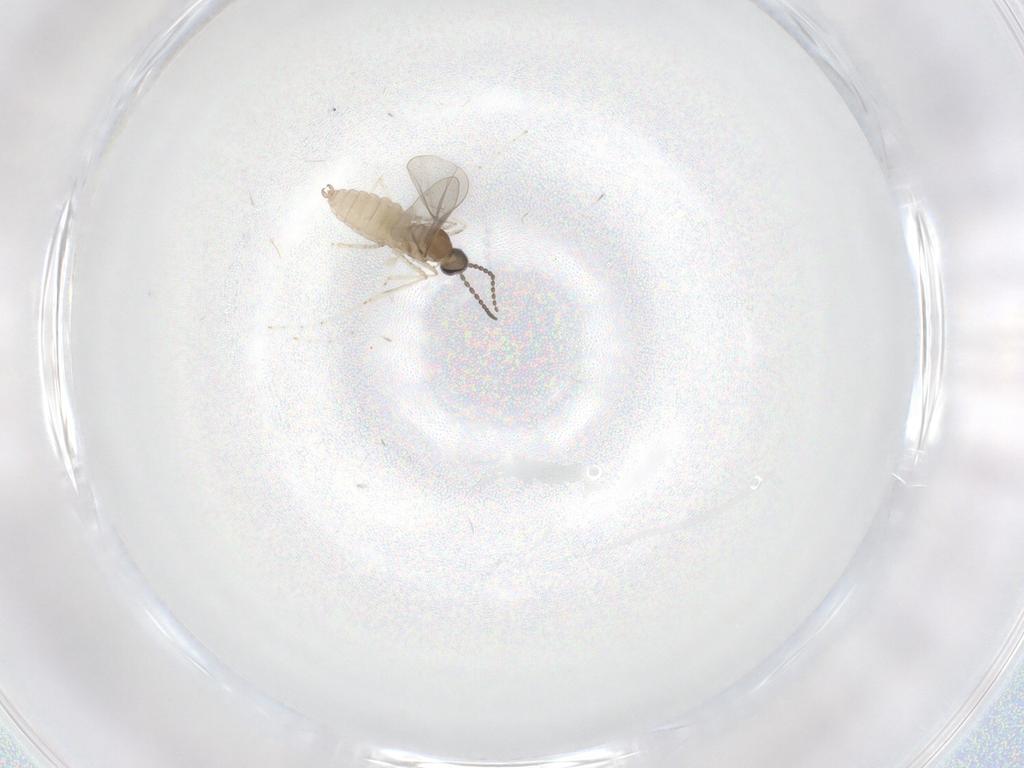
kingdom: Animalia
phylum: Arthropoda
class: Insecta
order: Diptera
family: Cecidomyiidae
